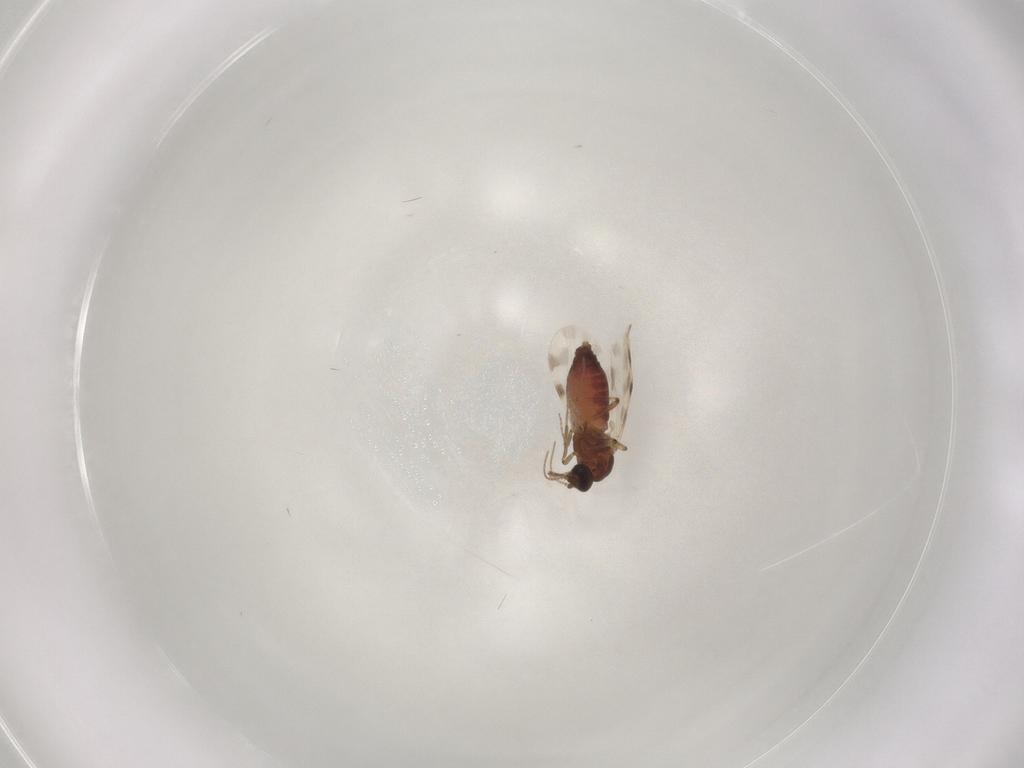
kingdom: Animalia
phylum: Arthropoda
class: Insecta
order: Diptera
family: Ceratopogonidae
